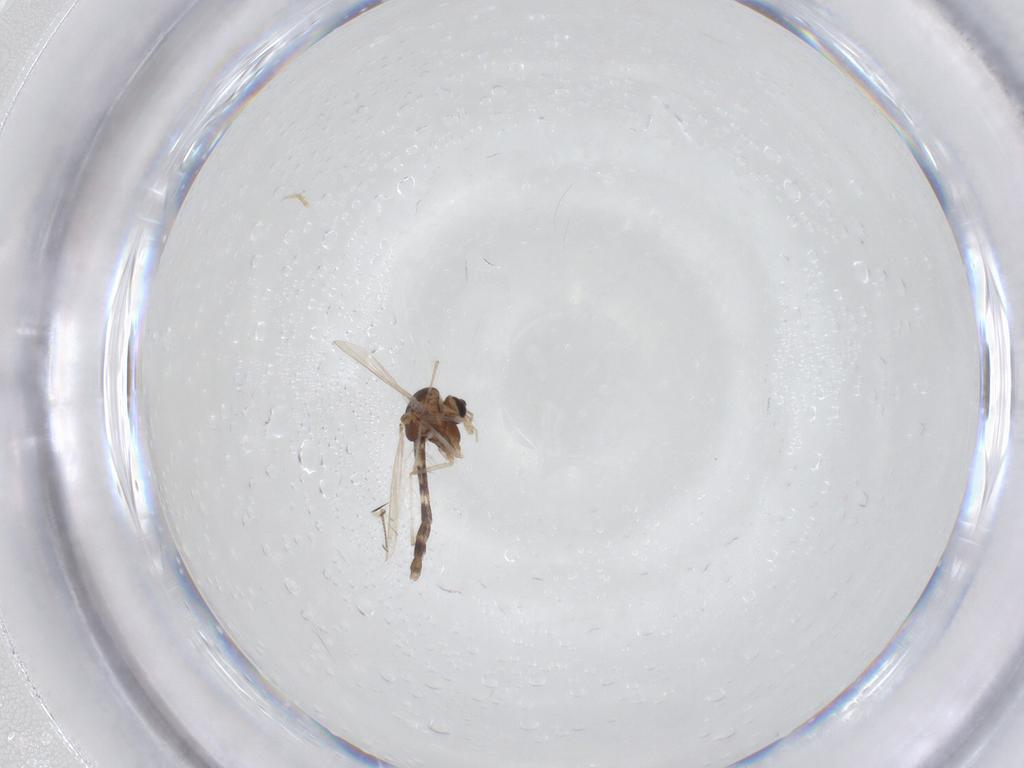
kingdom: Animalia
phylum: Arthropoda
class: Insecta
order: Diptera
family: Chironomidae
